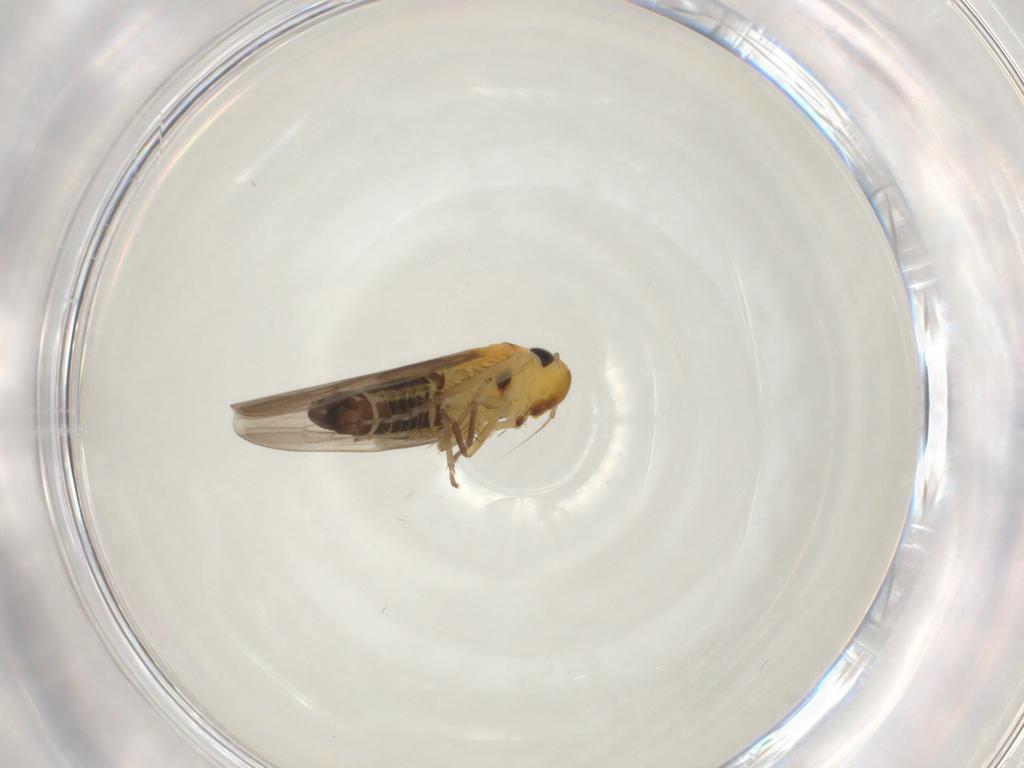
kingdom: Animalia
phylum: Arthropoda
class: Insecta
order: Hemiptera
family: Cicadellidae
